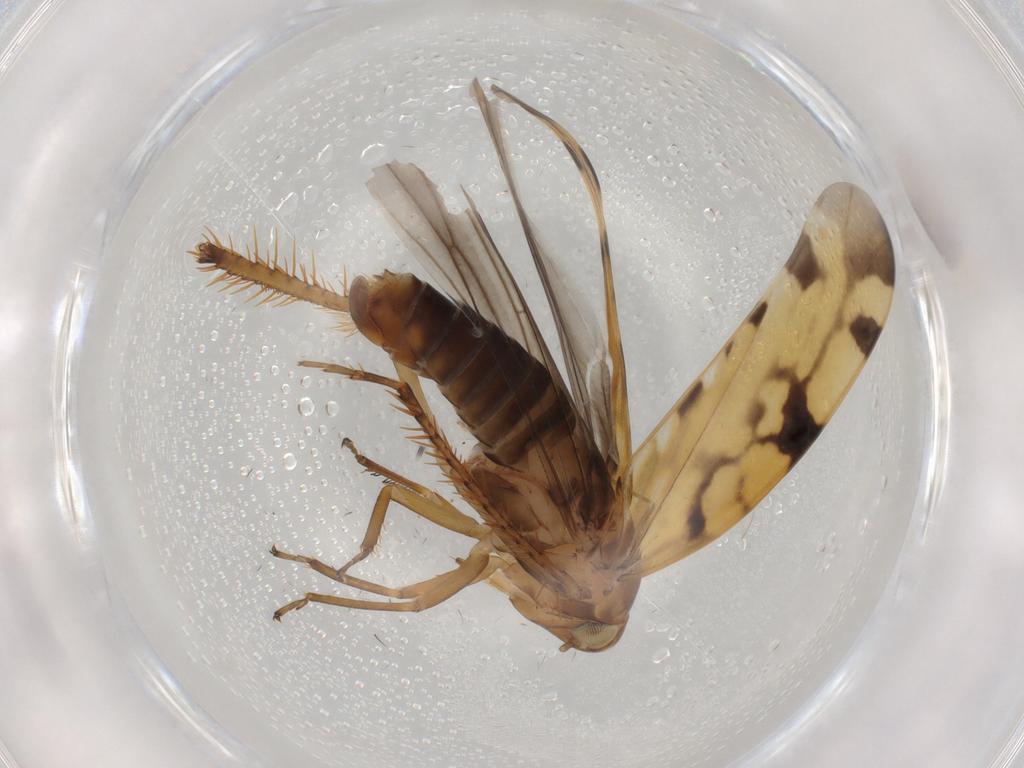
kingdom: Animalia
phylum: Arthropoda
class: Insecta
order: Hemiptera
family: Cicadellidae
